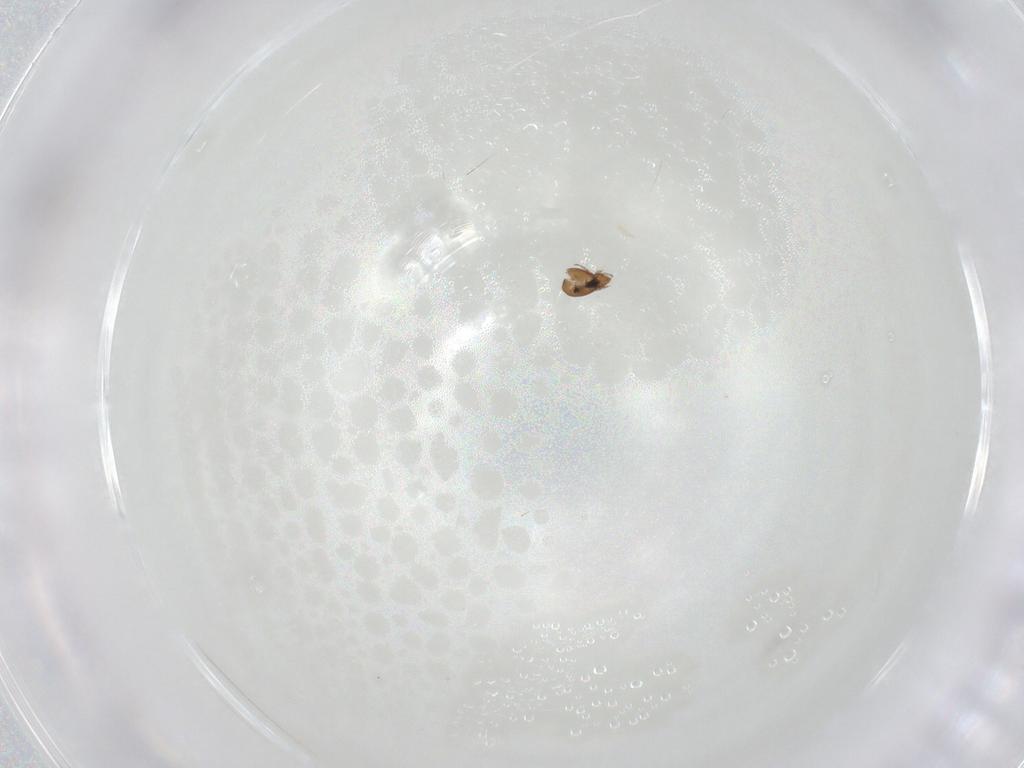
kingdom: Animalia
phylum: Arthropoda
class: Arachnida
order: Sarcoptiformes
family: Oribatulidae
